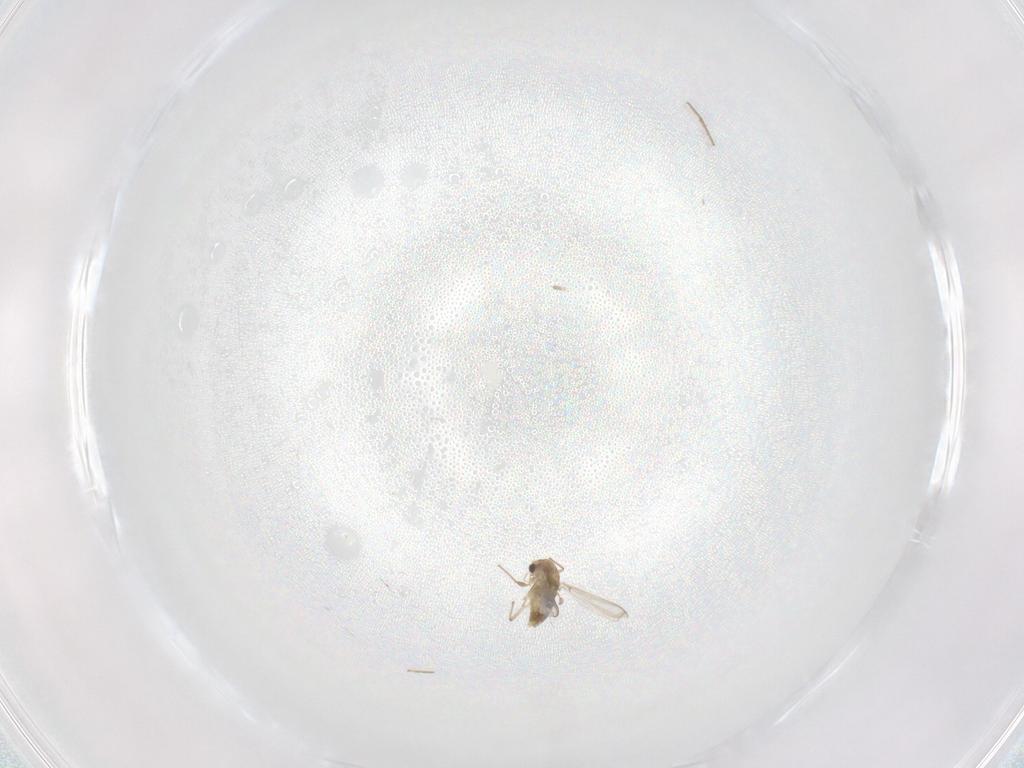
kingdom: Animalia
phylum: Arthropoda
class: Insecta
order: Diptera
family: Chironomidae
